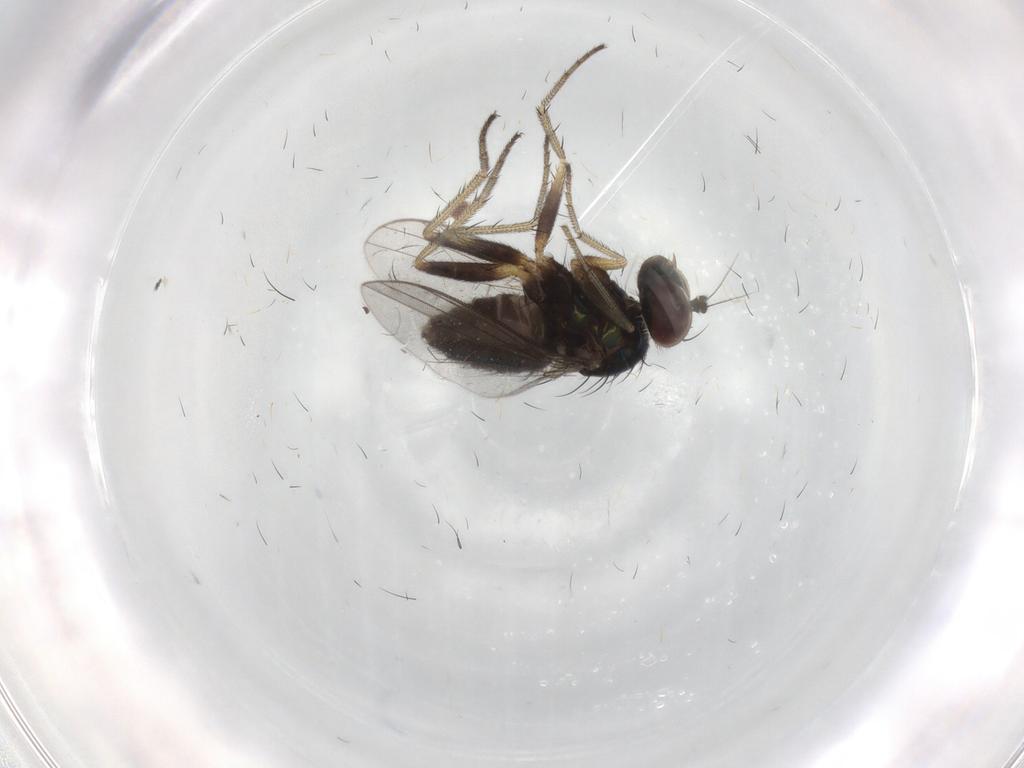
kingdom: Animalia
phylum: Arthropoda
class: Insecta
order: Diptera
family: Dolichopodidae
